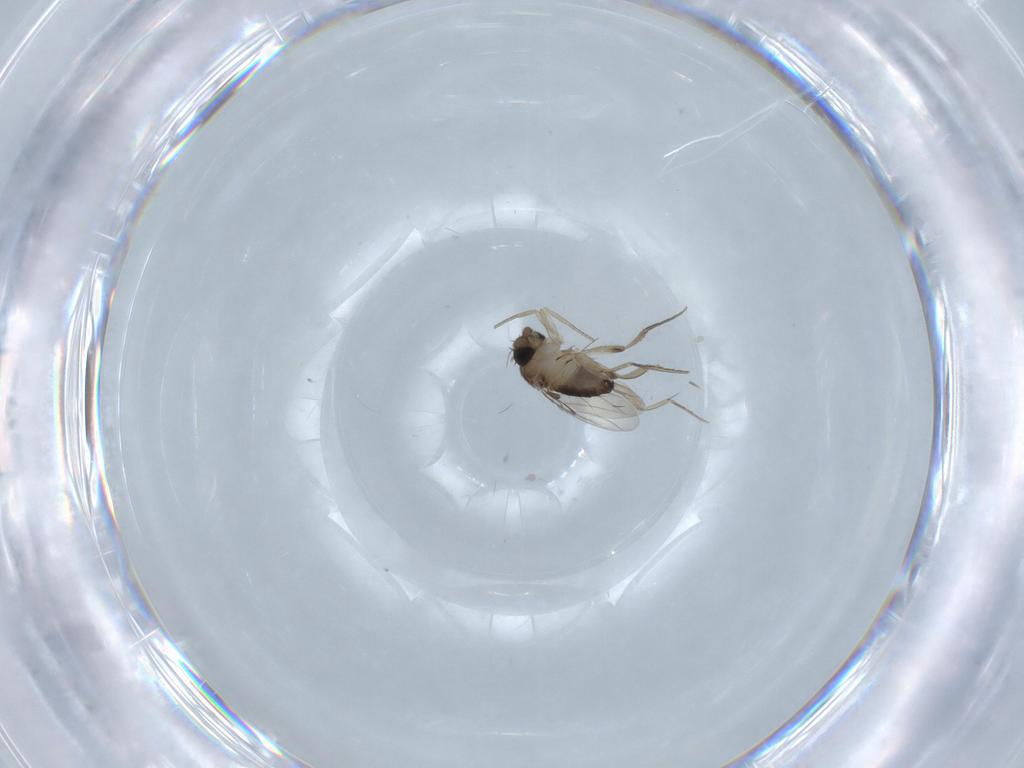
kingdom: Animalia
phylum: Arthropoda
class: Insecta
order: Diptera
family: Phoridae
